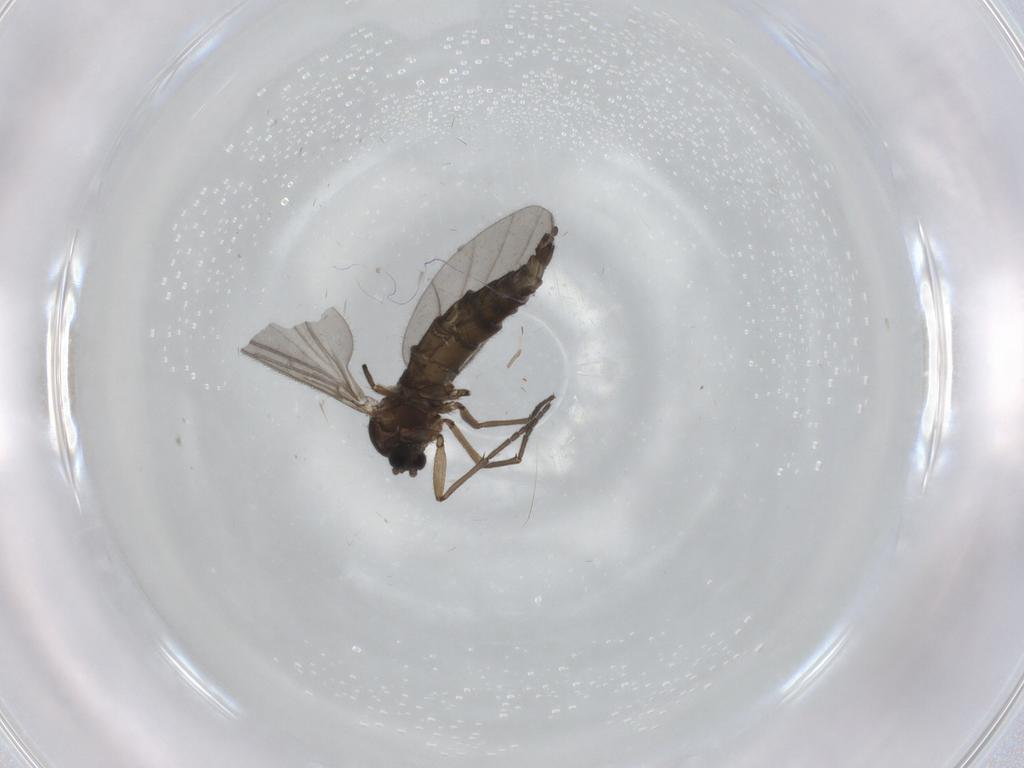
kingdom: Animalia
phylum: Arthropoda
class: Insecta
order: Diptera
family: Sciaridae
